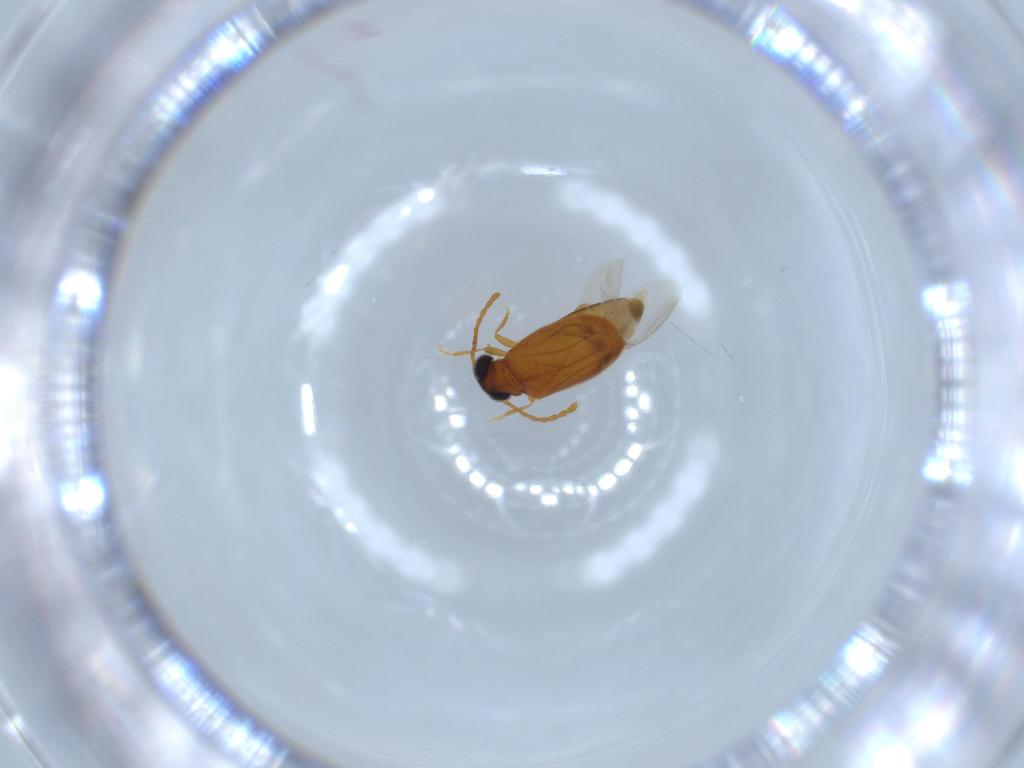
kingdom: Animalia
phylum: Arthropoda
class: Insecta
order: Coleoptera
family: Aderidae
